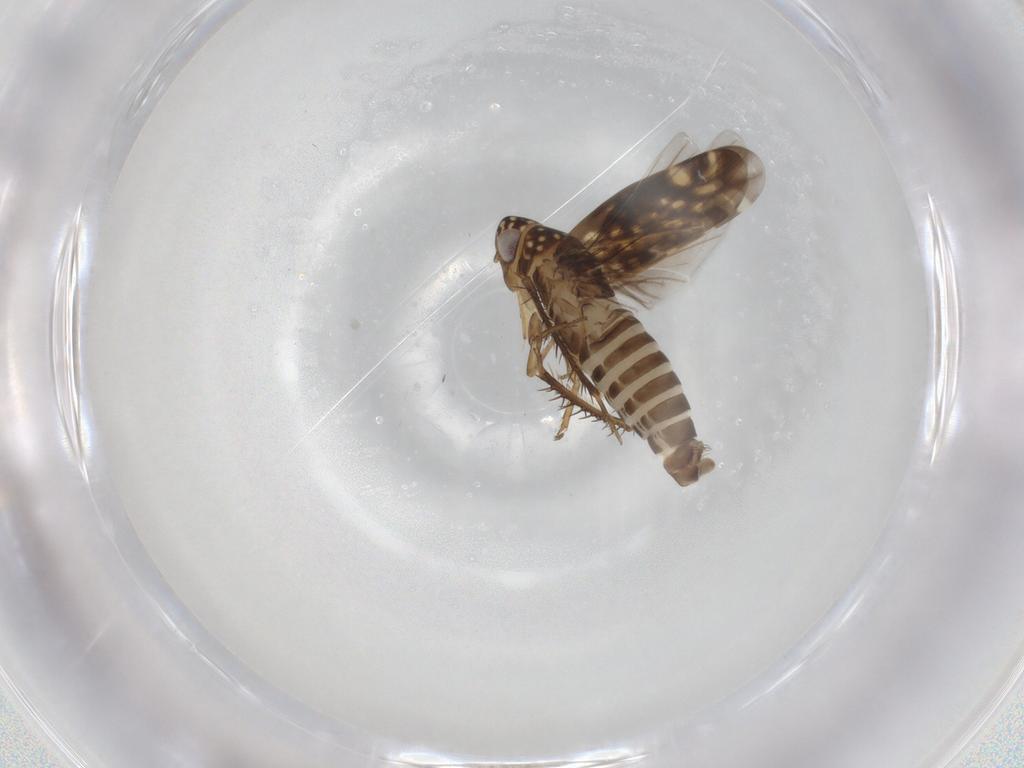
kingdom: Animalia
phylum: Arthropoda
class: Insecta
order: Hemiptera
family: Cicadellidae
